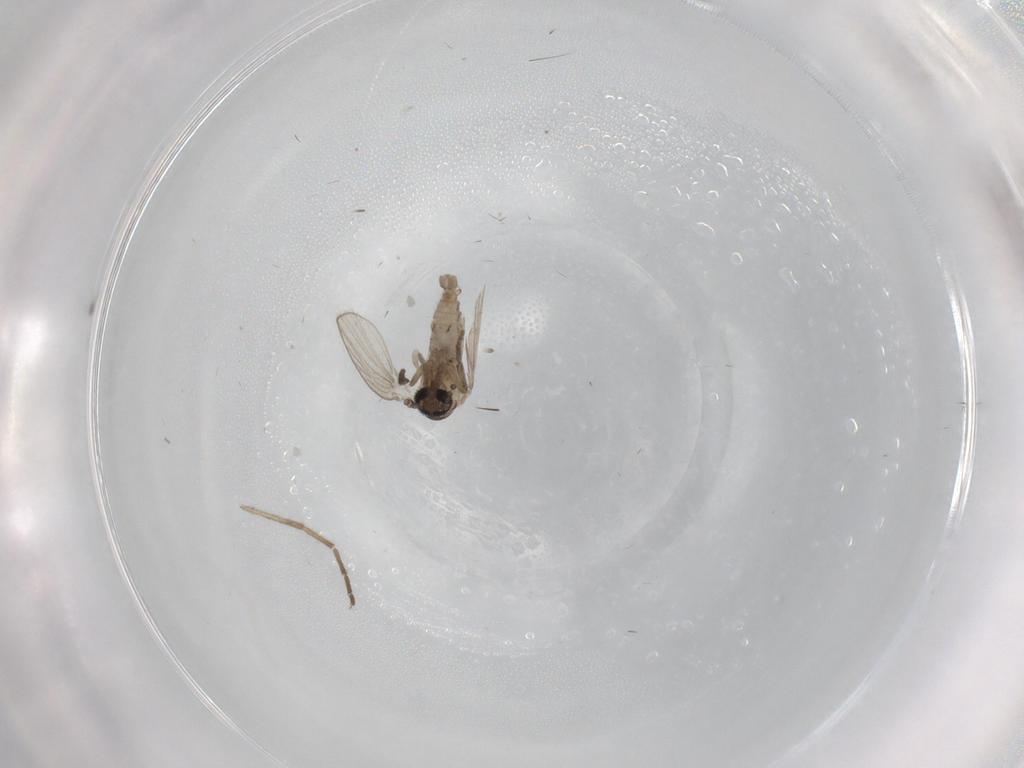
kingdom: Animalia
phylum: Arthropoda
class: Insecta
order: Diptera
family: Psychodidae
